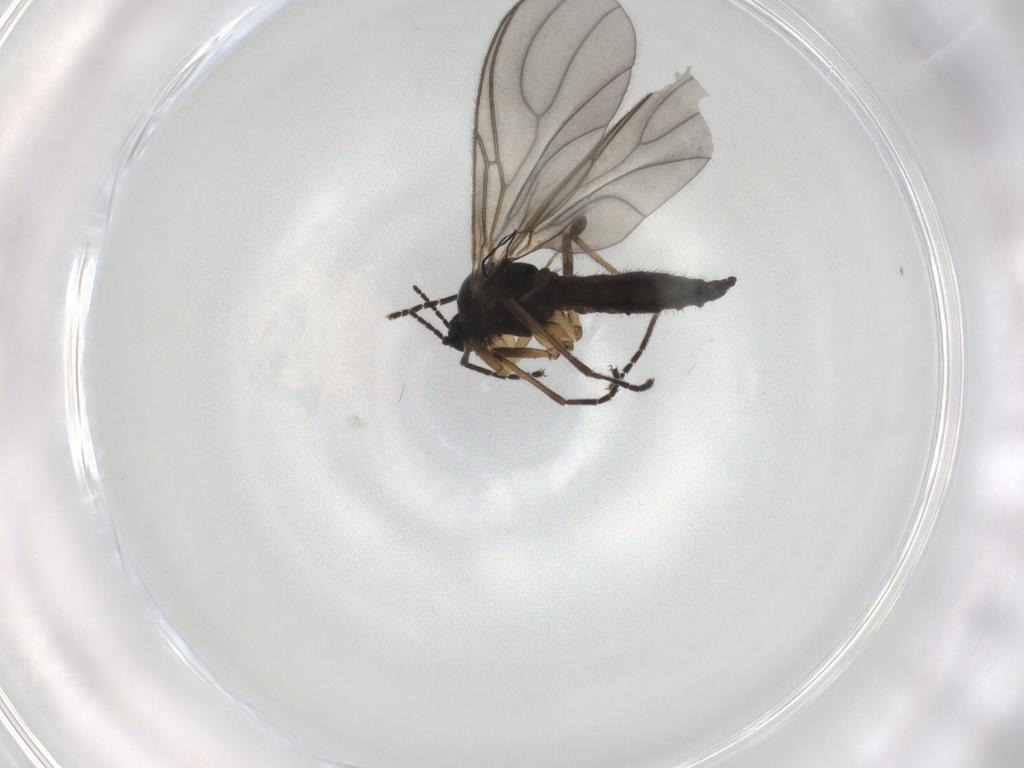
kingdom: Animalia
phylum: Arthropoda
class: Insecta
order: Diptera
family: Sciaridae
